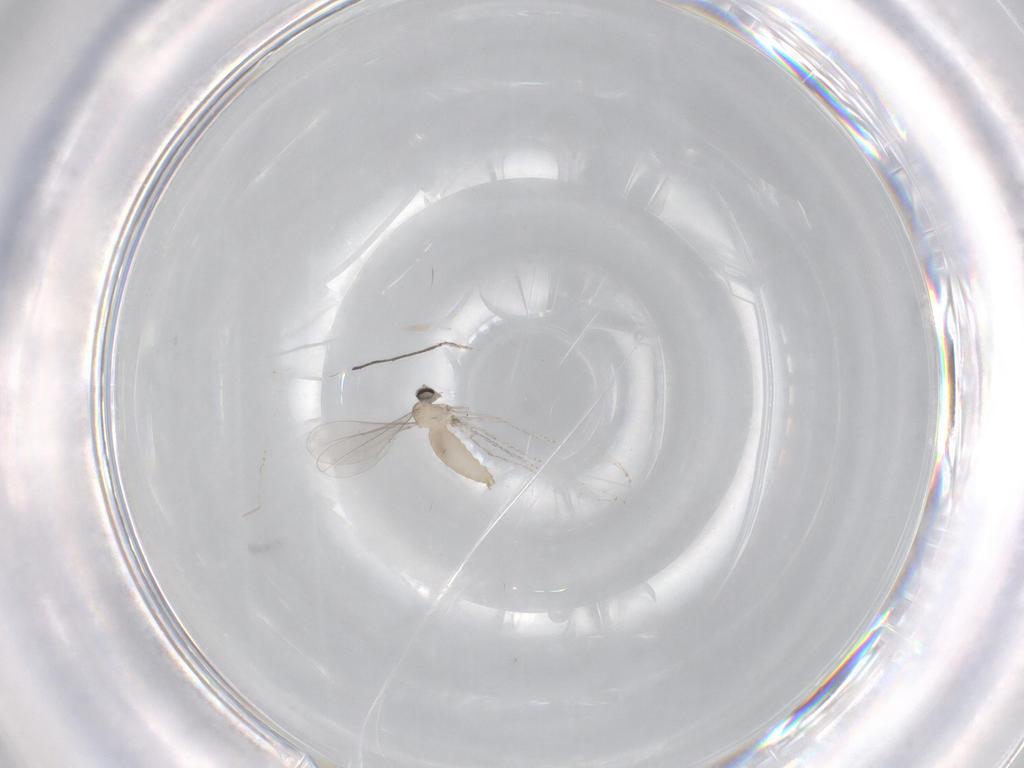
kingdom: Animalia
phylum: Arthropoda
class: Insecta
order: Diptera
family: Cecidomyiidae
